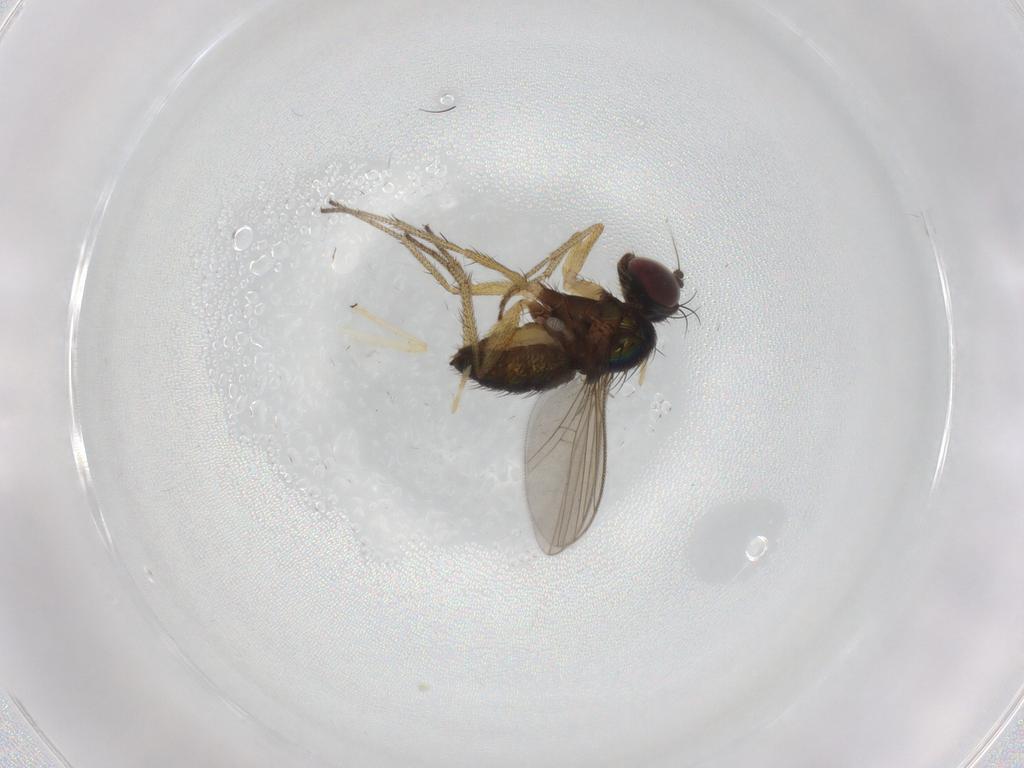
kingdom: Animalia
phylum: Arthropoda
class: Insecta
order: Diptera
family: Dolichopodidae
